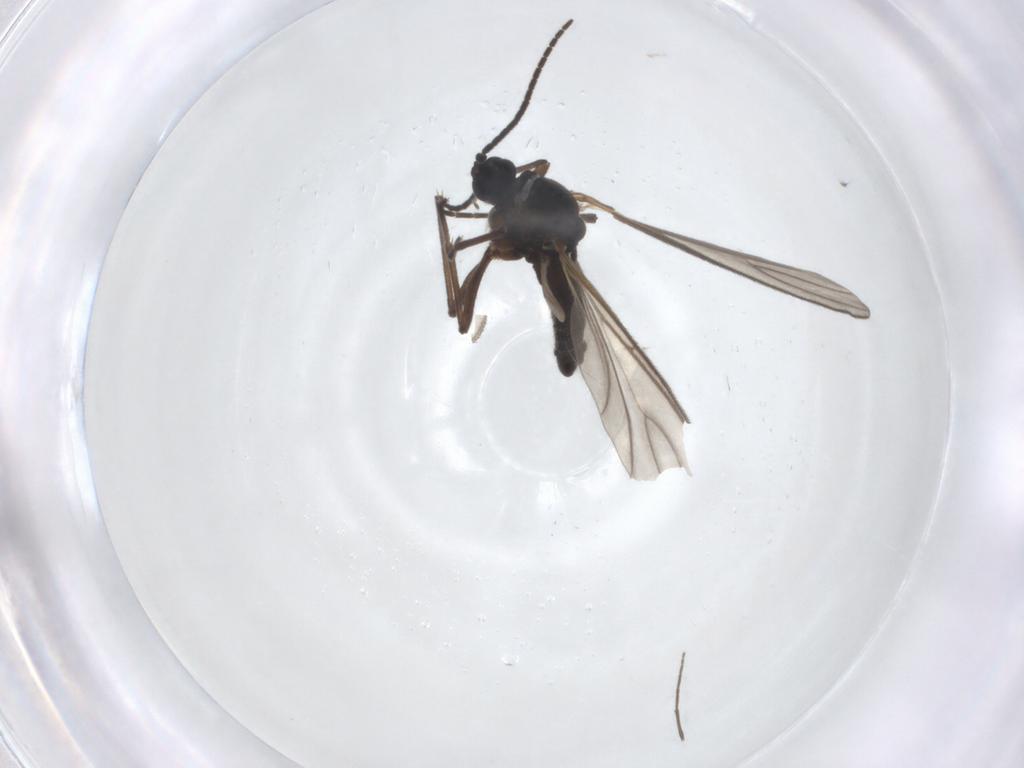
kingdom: Animalia
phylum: Arthropoda
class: Insecta
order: Diptera
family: Sciaridae
